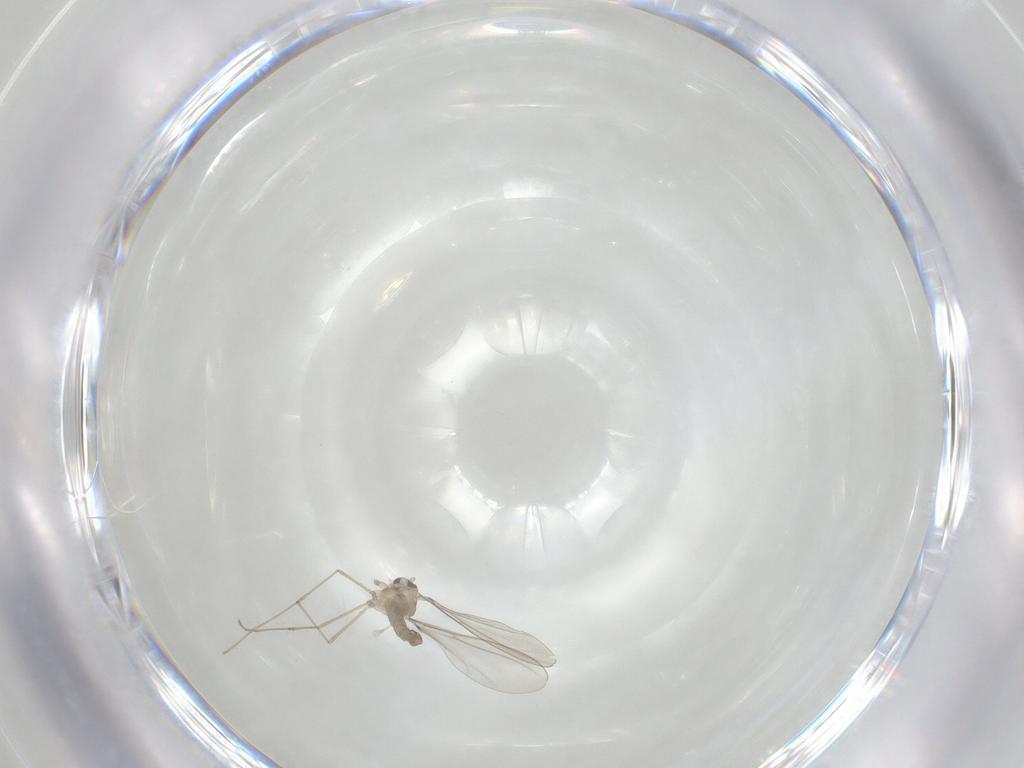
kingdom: Animalia
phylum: Arthropoda
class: Insecta
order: Diptera
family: Cecidomyiidae
